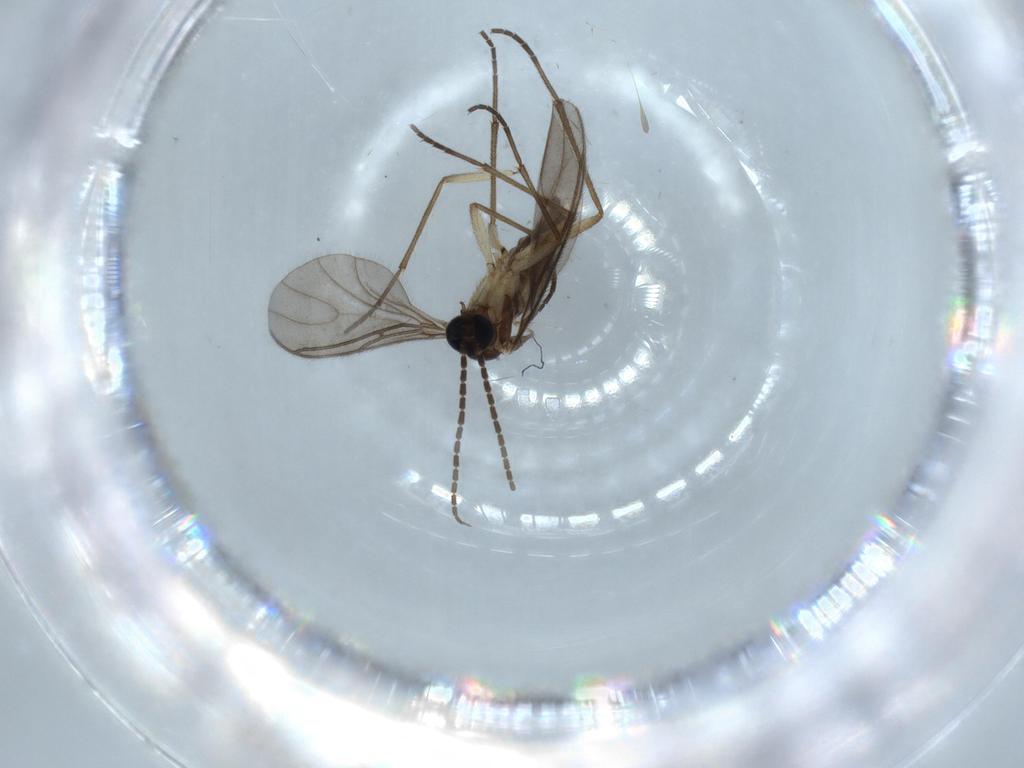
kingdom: Animalia
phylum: Arthropoda
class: Insecta
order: Diptera
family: Sciaridae
